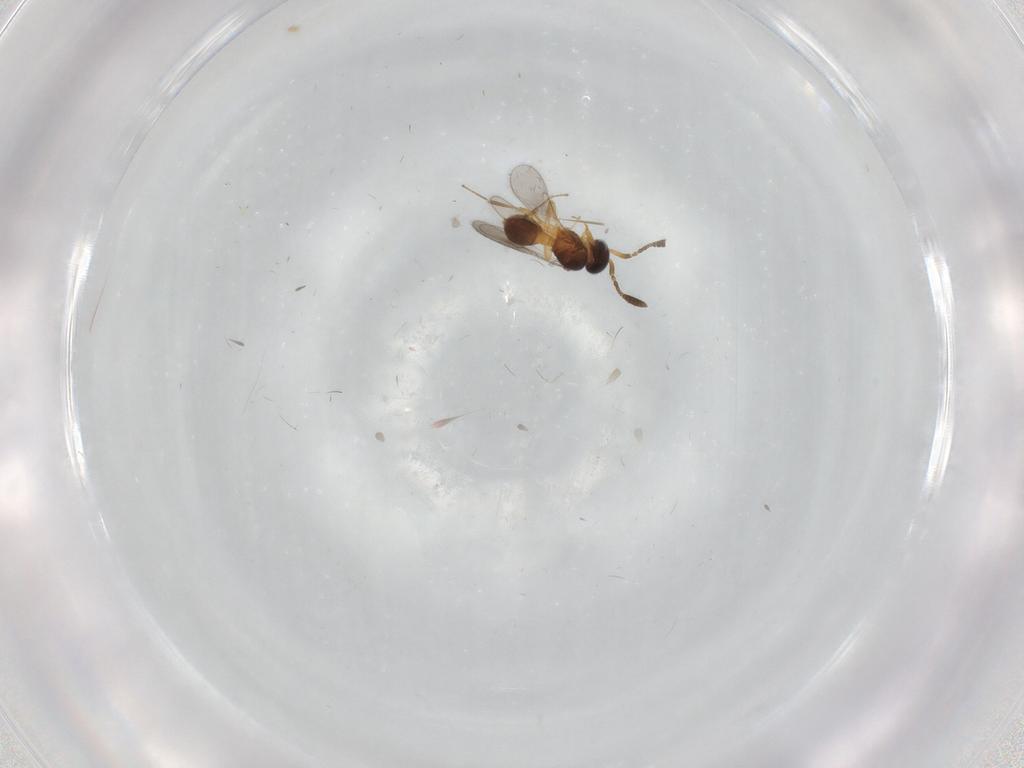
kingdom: Animalia
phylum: Arthropoda
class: Insecta
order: Hymenoptera
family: Scelionidae
